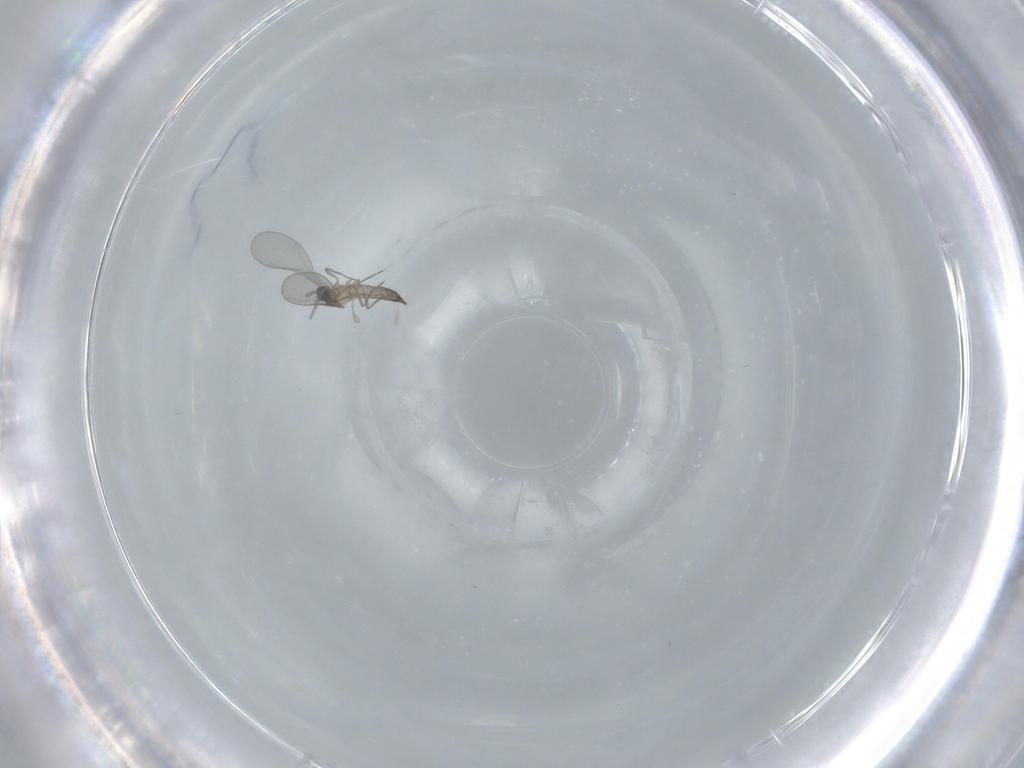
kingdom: Animalia
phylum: Arthropoda
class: Insecta
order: Diptera
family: Cecidomyiidae
